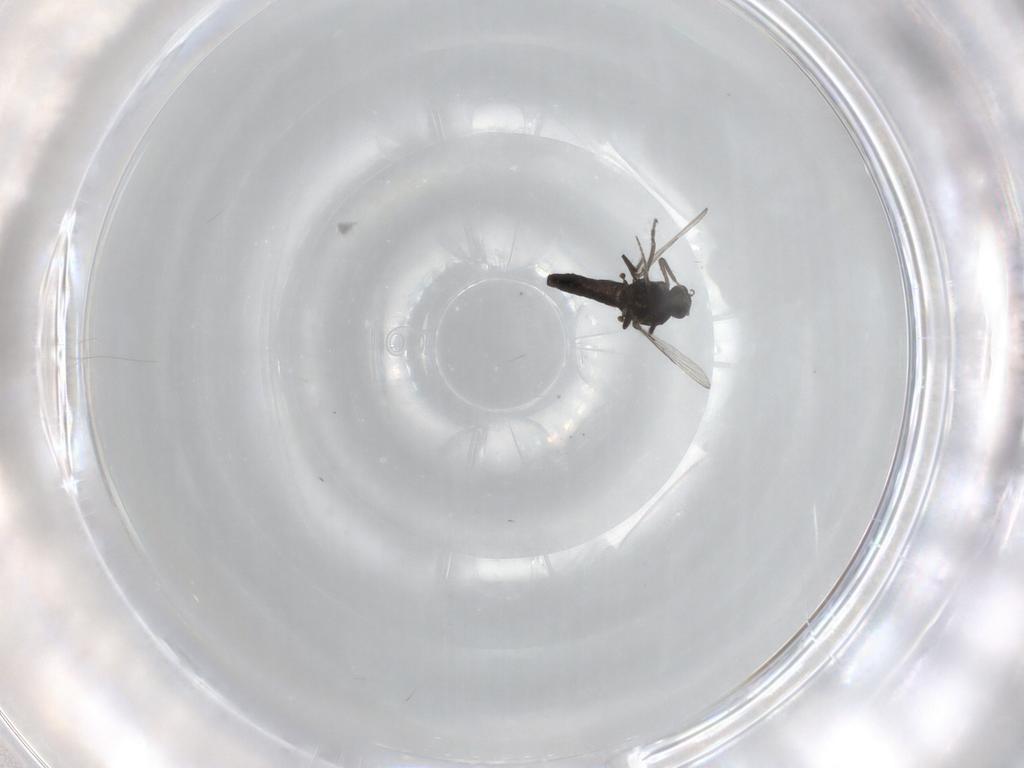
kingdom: Animalia
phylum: Arthropoda
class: Insecta
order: Diptera
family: Ceratopogonidae
